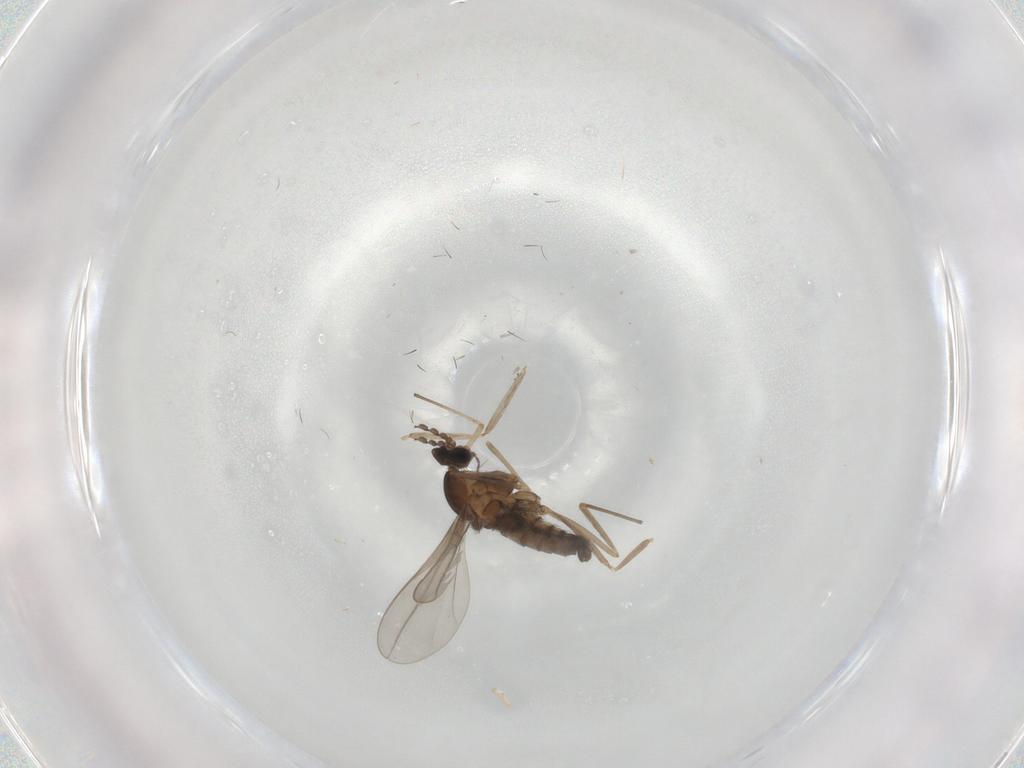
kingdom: Animalia
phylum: Arthropoda
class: Insecta
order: Diptera
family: Cecidomyiidae
